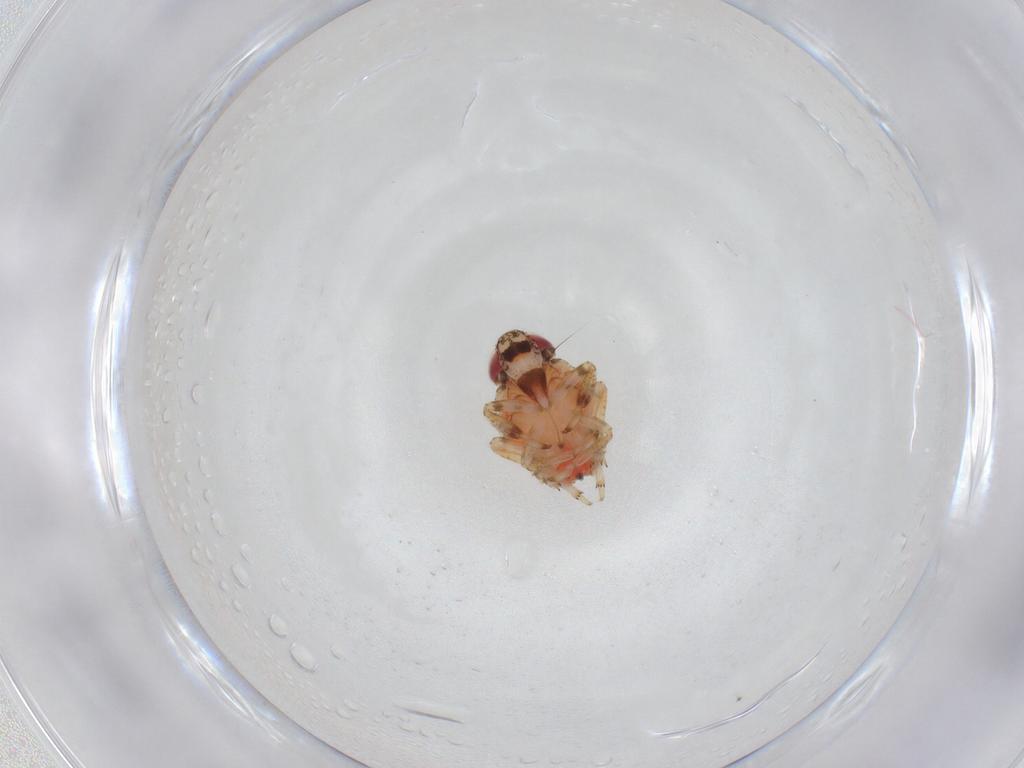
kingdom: Animalia
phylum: Arthropoda
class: Insecta
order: Hemiptera
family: Issidae
